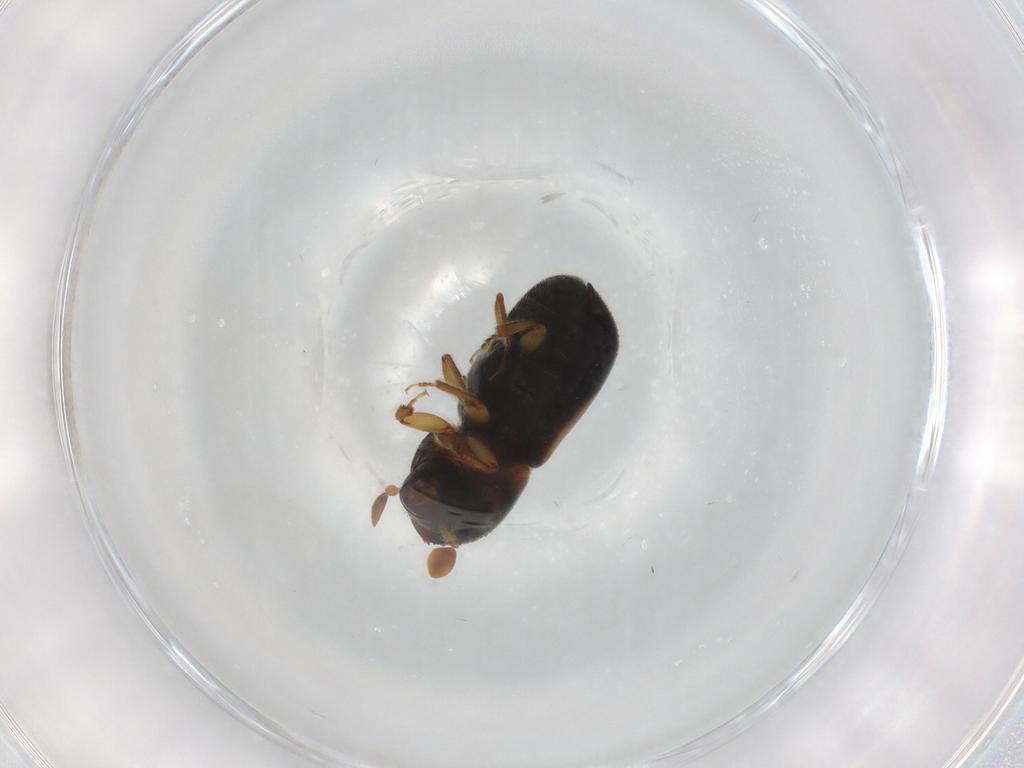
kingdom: Animalia
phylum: Arthropoda
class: Insecta
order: Coleoptera
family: Curculionidae
